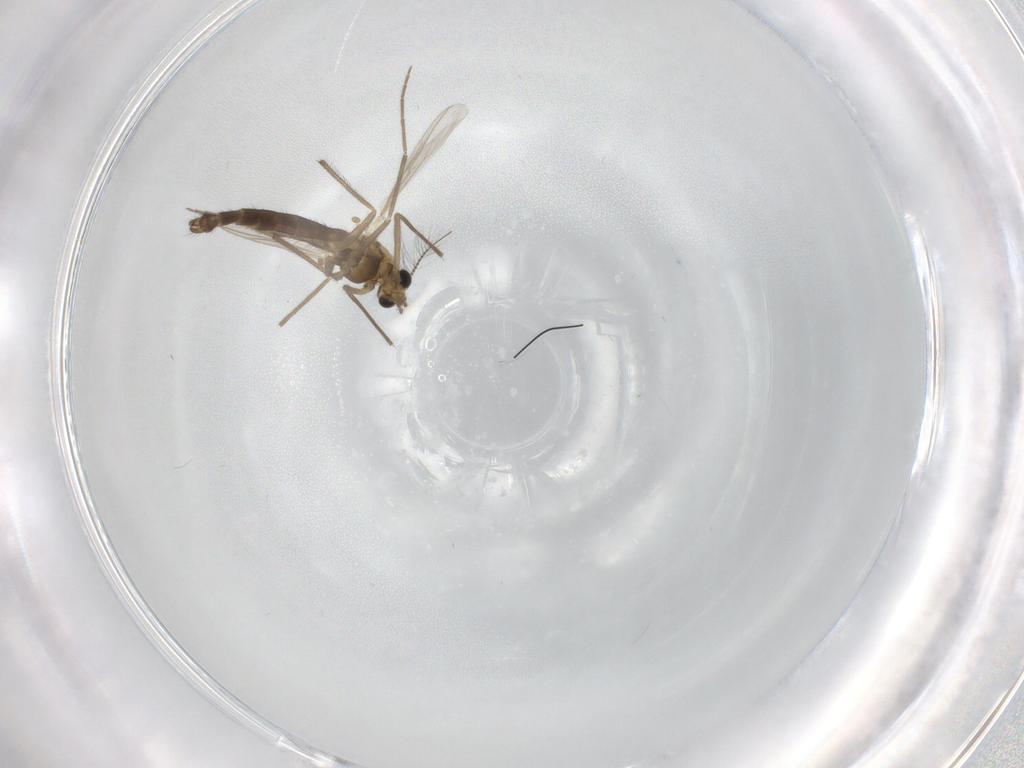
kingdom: Animalia
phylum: Arthropoda
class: Insecta
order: Diptera
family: Chironomidae
